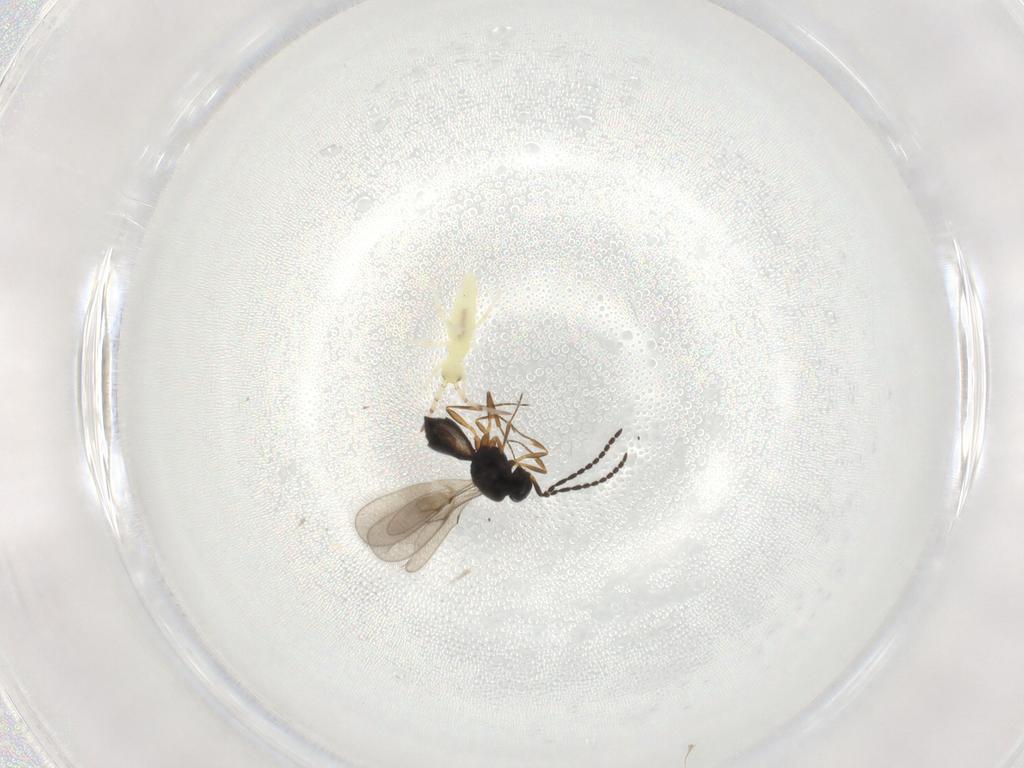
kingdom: Animalia
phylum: Arthropoda
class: Insecta
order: Hymenoptera
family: Scelionidae
